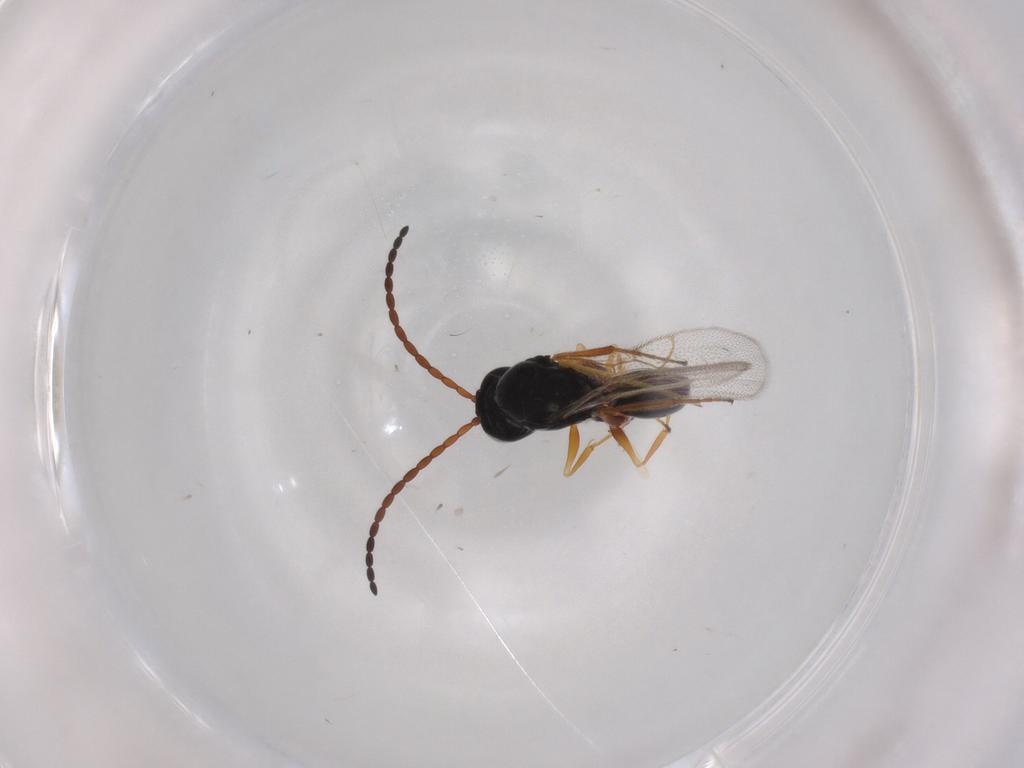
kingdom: Animalia
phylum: Arthropoda
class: Insecta
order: Hymenoptera
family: Figitidae
